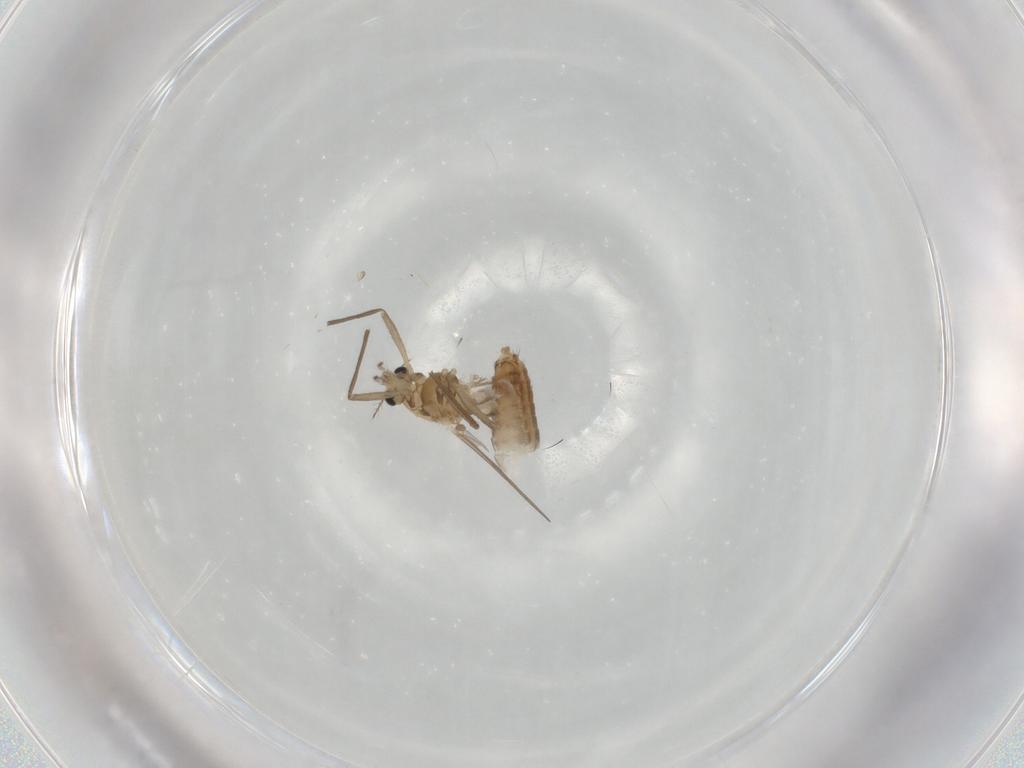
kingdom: Animalia
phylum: Arthropoda
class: Insecta
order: Diptera
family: Chironomidae
